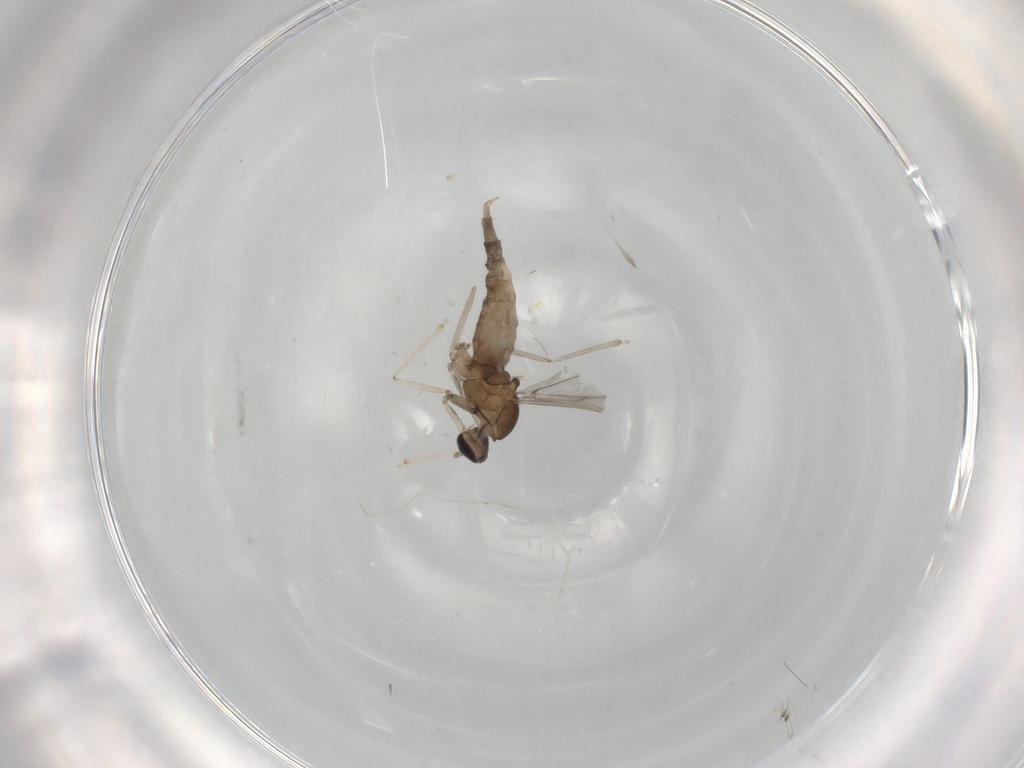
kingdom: Animalia
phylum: Arthropoda
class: Insecta
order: Diptera
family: Cecidomyiidae
